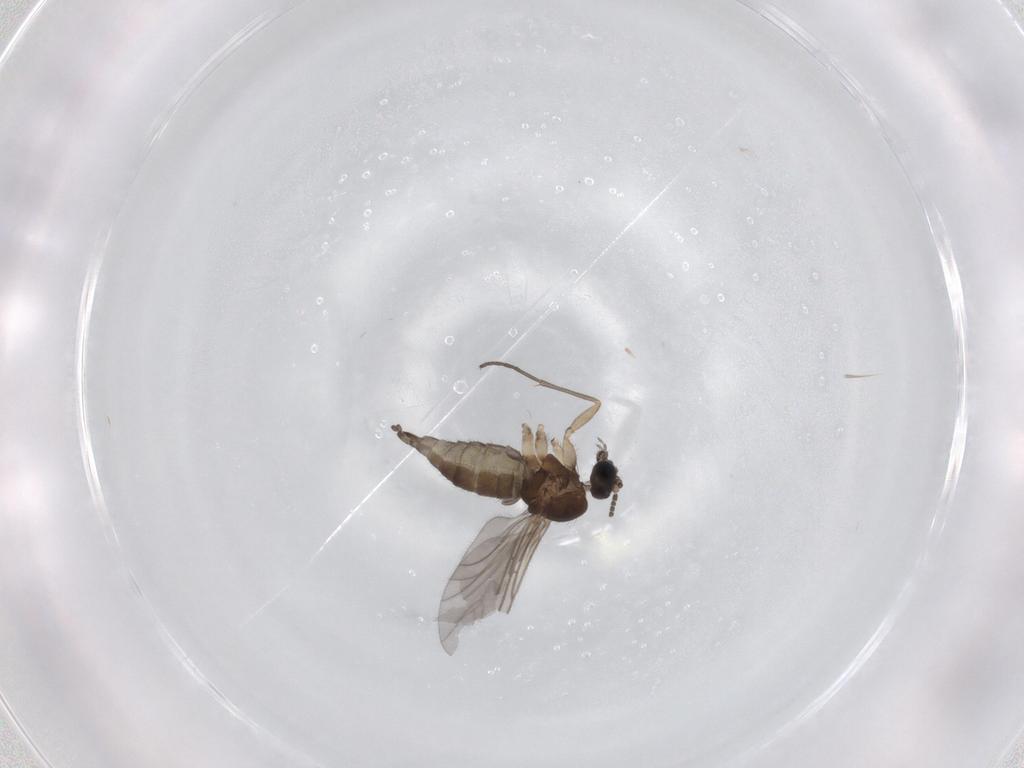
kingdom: Animalia
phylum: Arthropoda
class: Insecta
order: Diptera
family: Sciaridae
